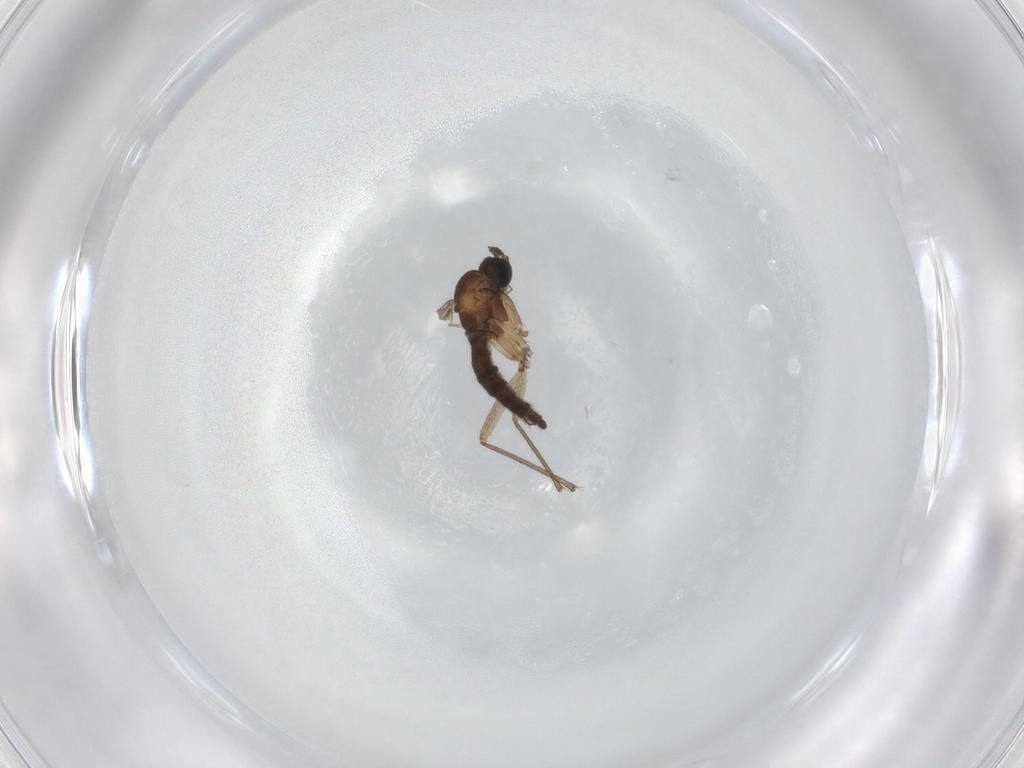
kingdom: Animalia
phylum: Arthropoda
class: Insecta
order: Diptera
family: Sciaridae
